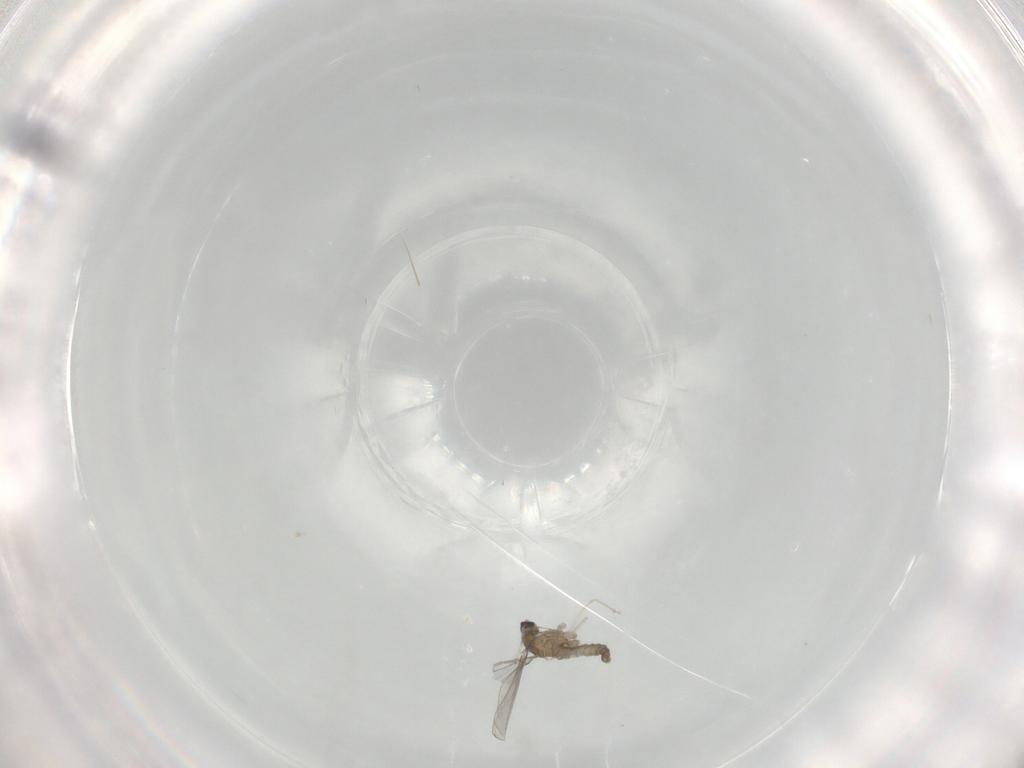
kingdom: Animalia
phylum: Arthropoda
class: Insecta
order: Diptera
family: Cecidomyiidae
